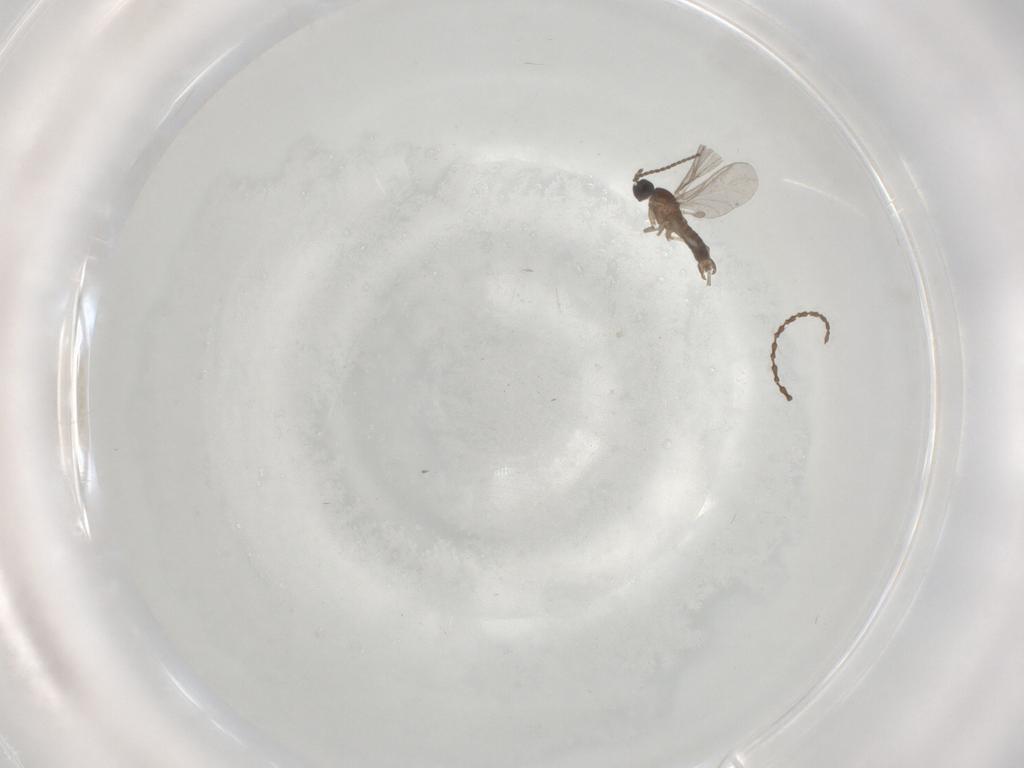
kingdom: Animalia
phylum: Arthropoda
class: Insecta
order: Diptera
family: Sciaridae
